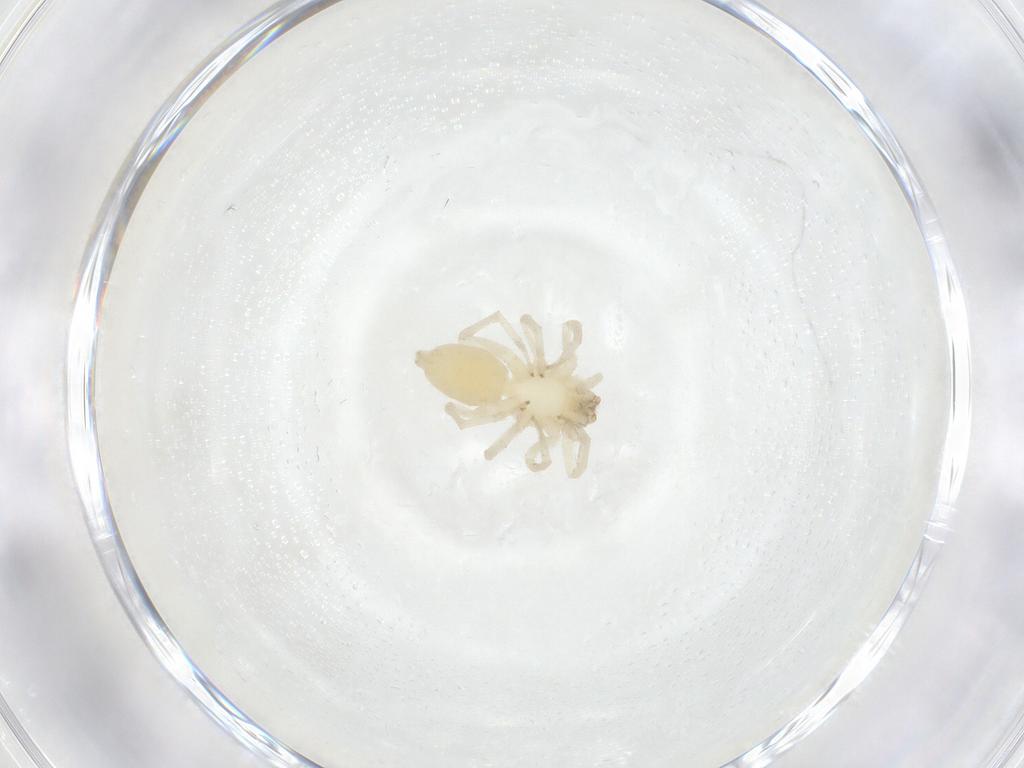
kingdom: Animalia
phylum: Arthropoda
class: Arachnida
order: Araneae
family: Clubionidae
